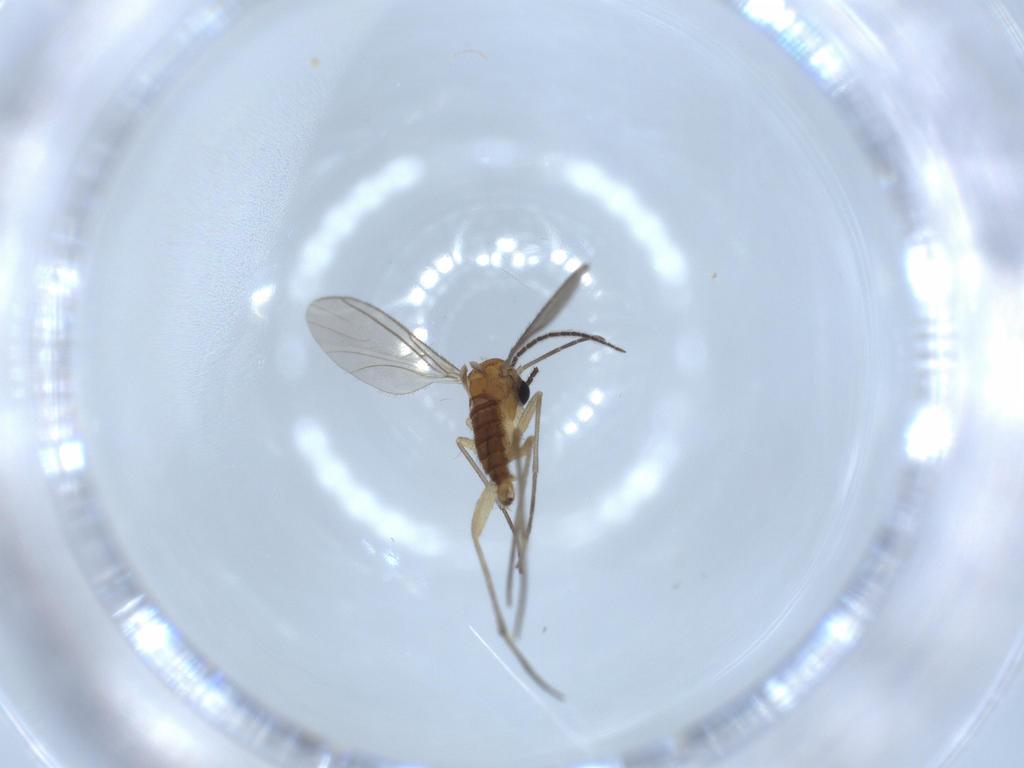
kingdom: Animalia
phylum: Arthropoda
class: Insecta
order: Diptera
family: Sciaridae
